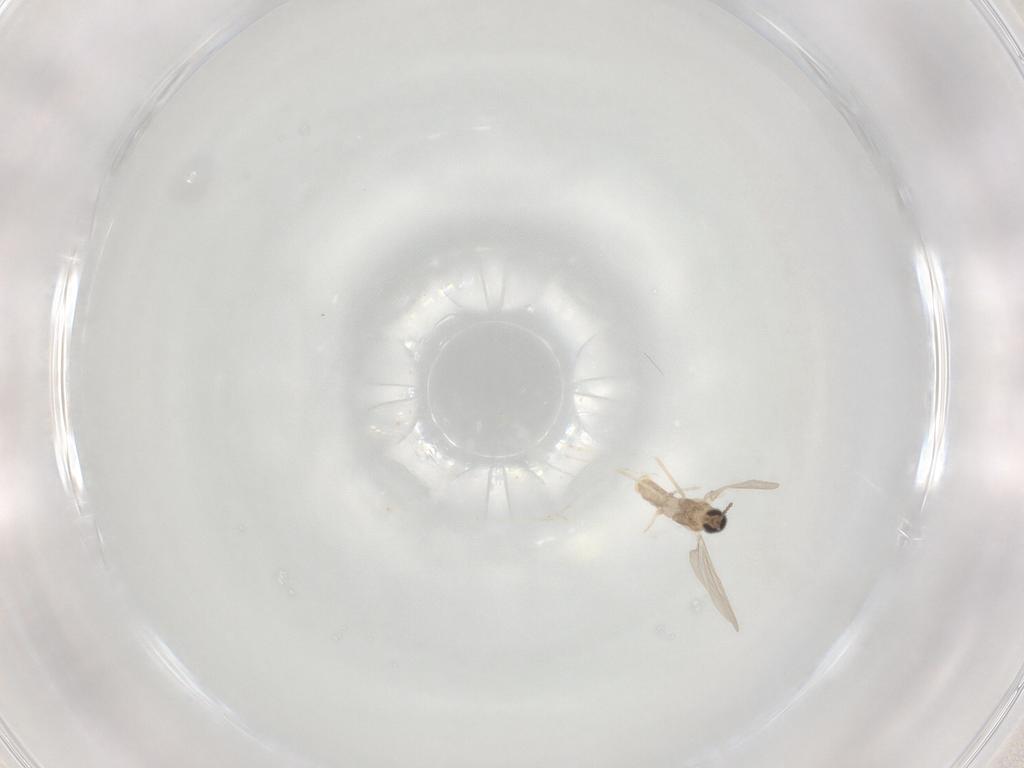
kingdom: Animalia
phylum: Arthropoda
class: Insecta
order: Diptera
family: Cecidomyiidae
